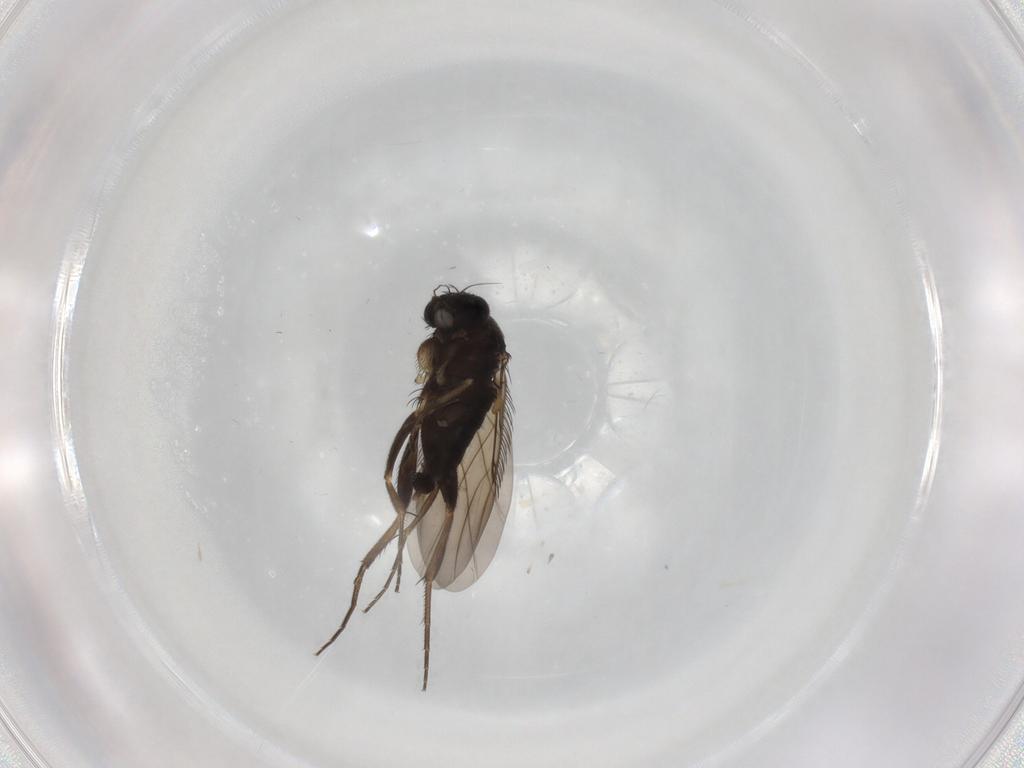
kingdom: Animalia
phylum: Arthropoda
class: Insecta
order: Diptera
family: Phoridae
